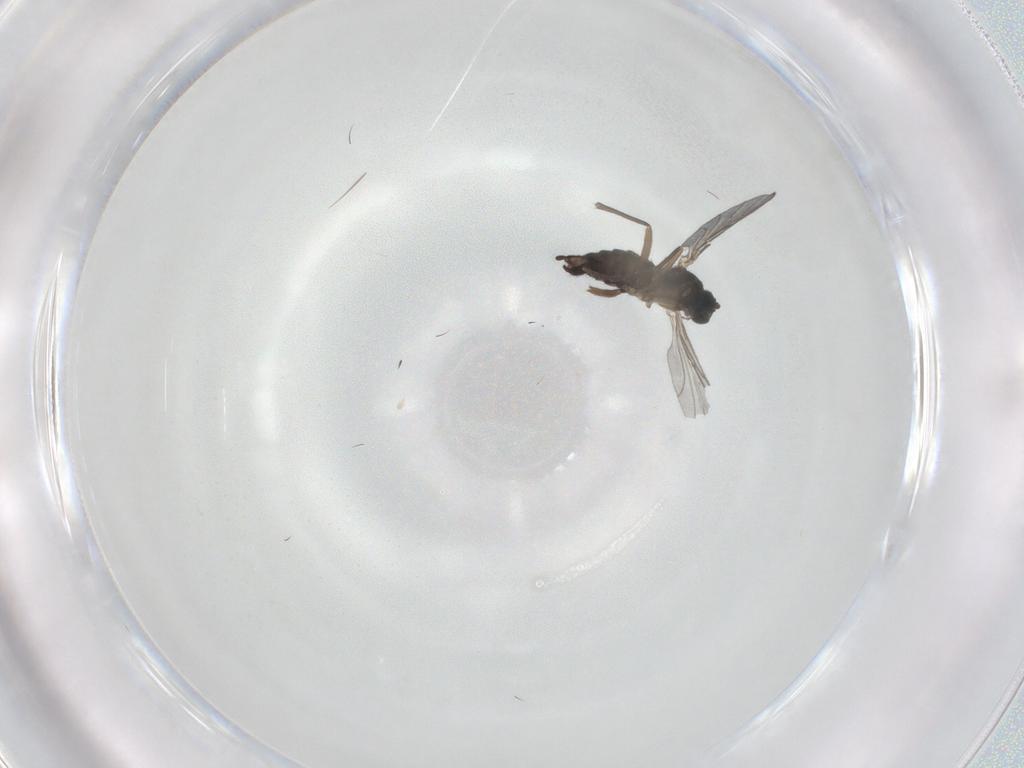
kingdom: Animalia
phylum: Arthropoda
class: Insecta
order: Diptera
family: Sciaridae
